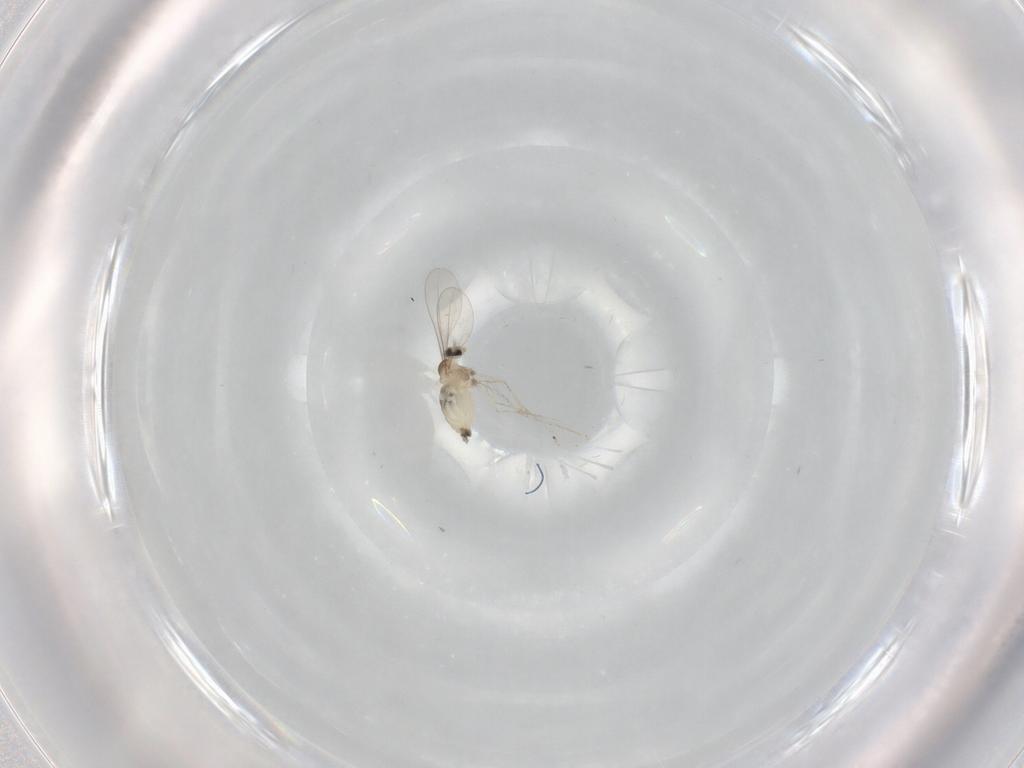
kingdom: Animalia
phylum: Arthropoda
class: Insecta
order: Diptera
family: Cecidomyiidae
